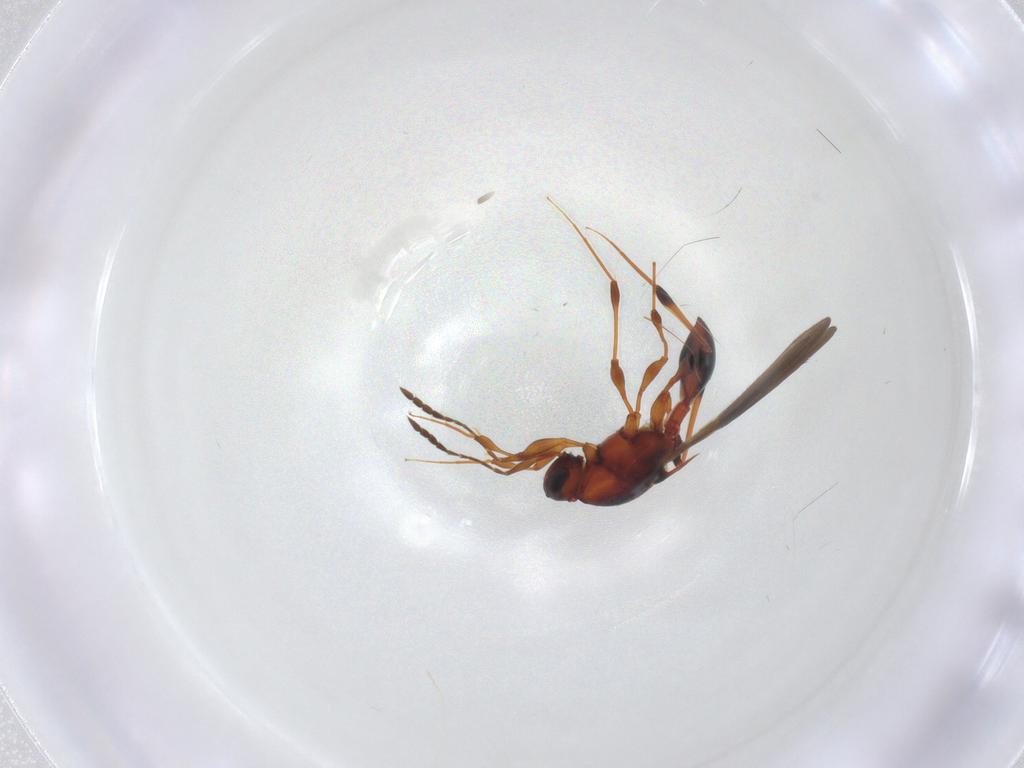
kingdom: Animalia
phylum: Arthropoda
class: Insecta
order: Hymenoptera
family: Platygastridae
